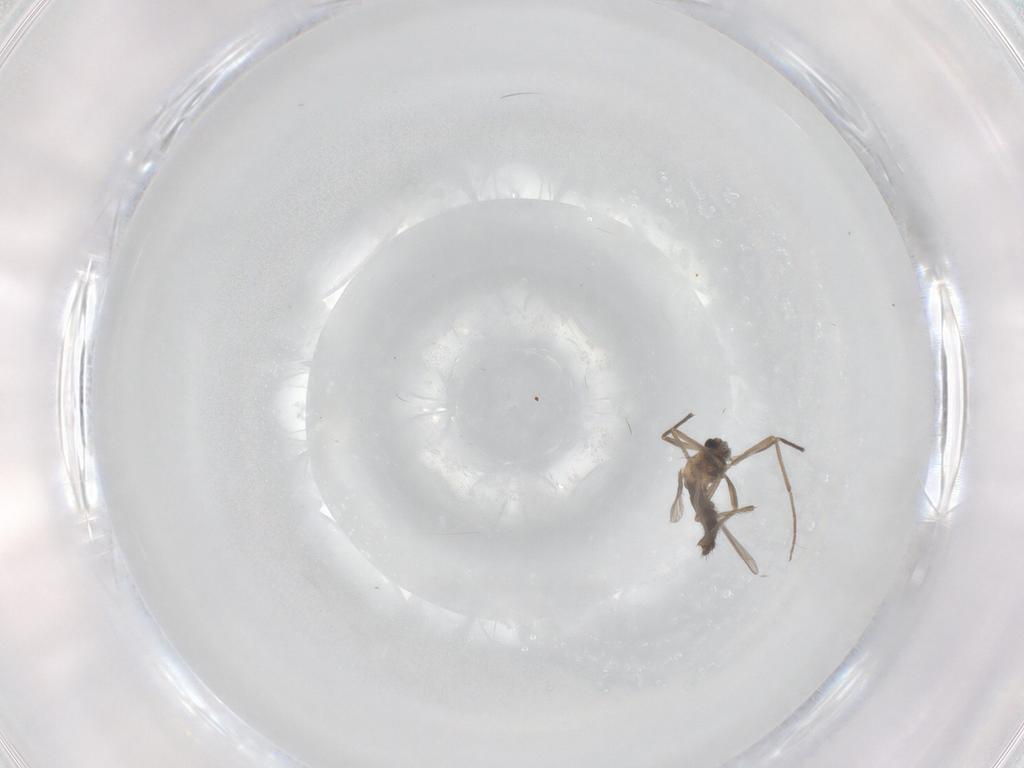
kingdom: Animalia
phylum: Arthropoda
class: Insecta
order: Diptera
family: Chironomidae
